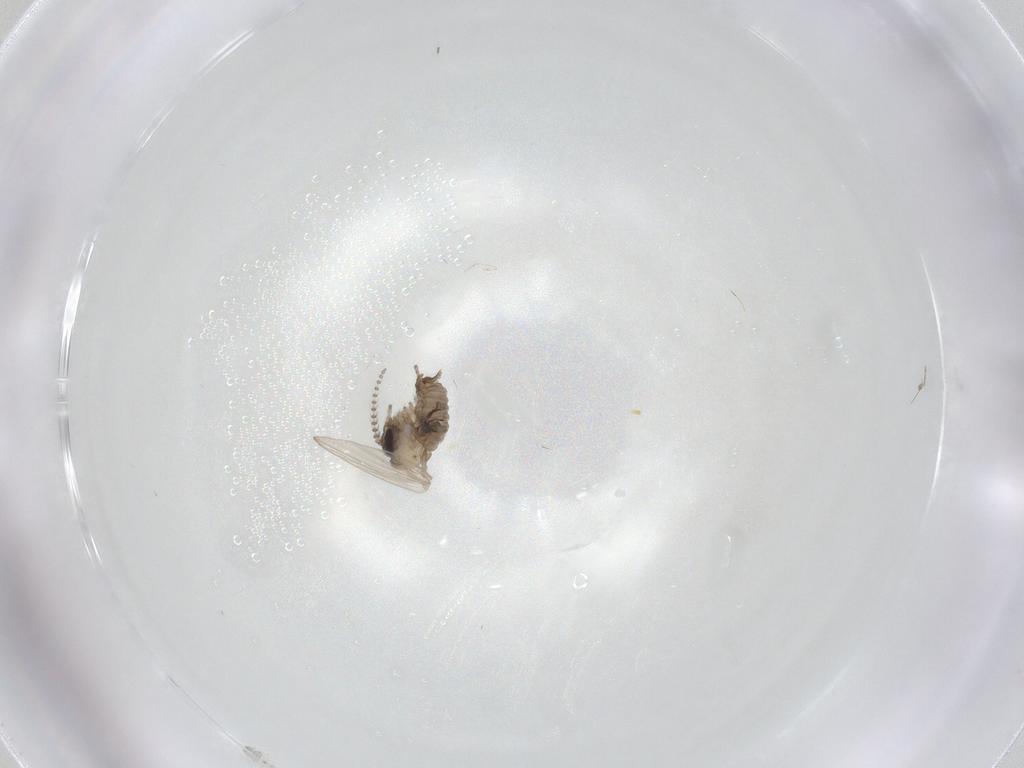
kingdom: Animalia
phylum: Arthropoda
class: Insecta
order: Diptera
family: Psychodidae
